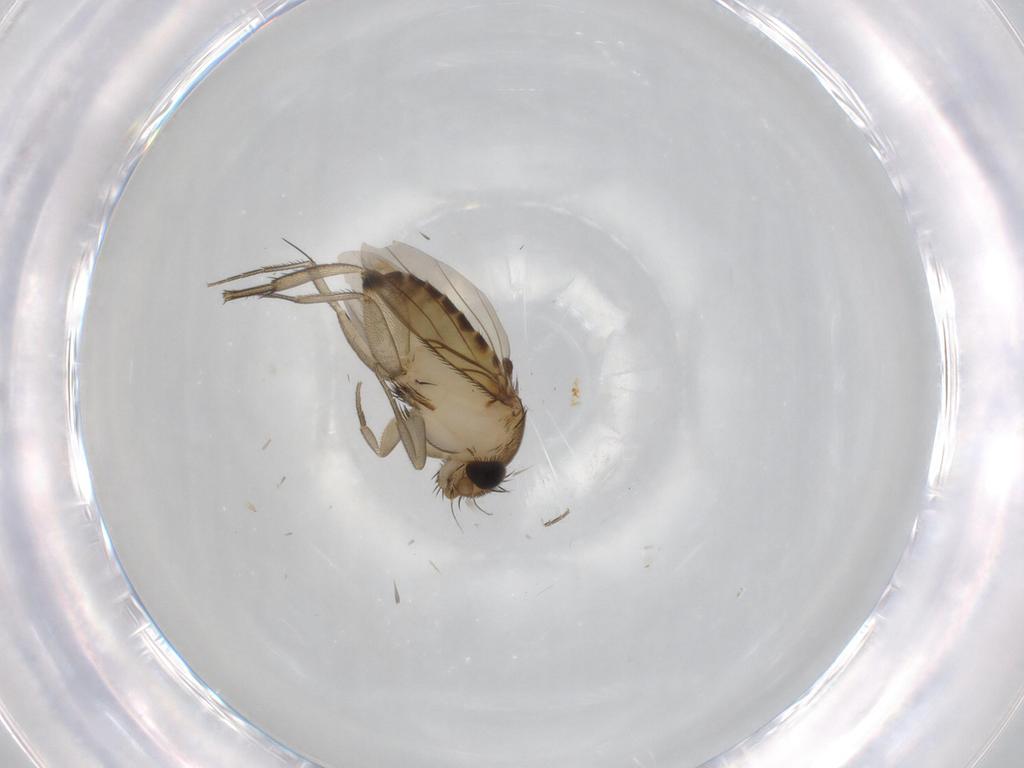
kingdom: Animalia
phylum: Arthropoda
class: Insecta
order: Diptera
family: Phoridae
